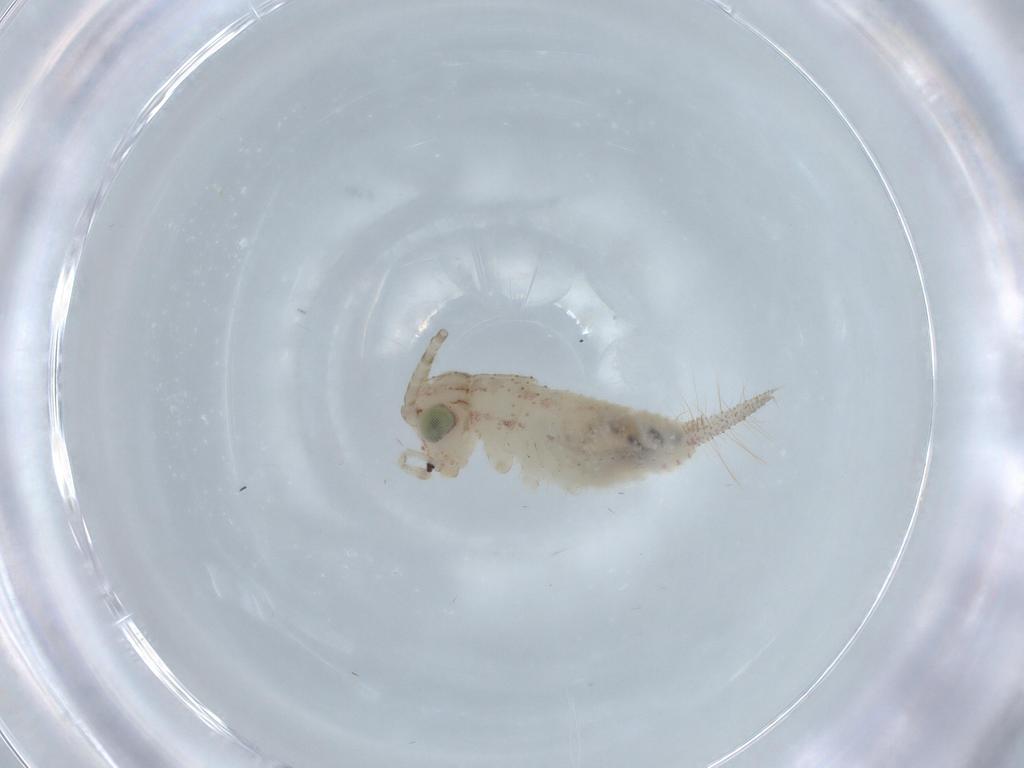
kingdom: Animalia
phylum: Arthropoda
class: Insecta
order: Orthoptera
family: Trigonidiidae
